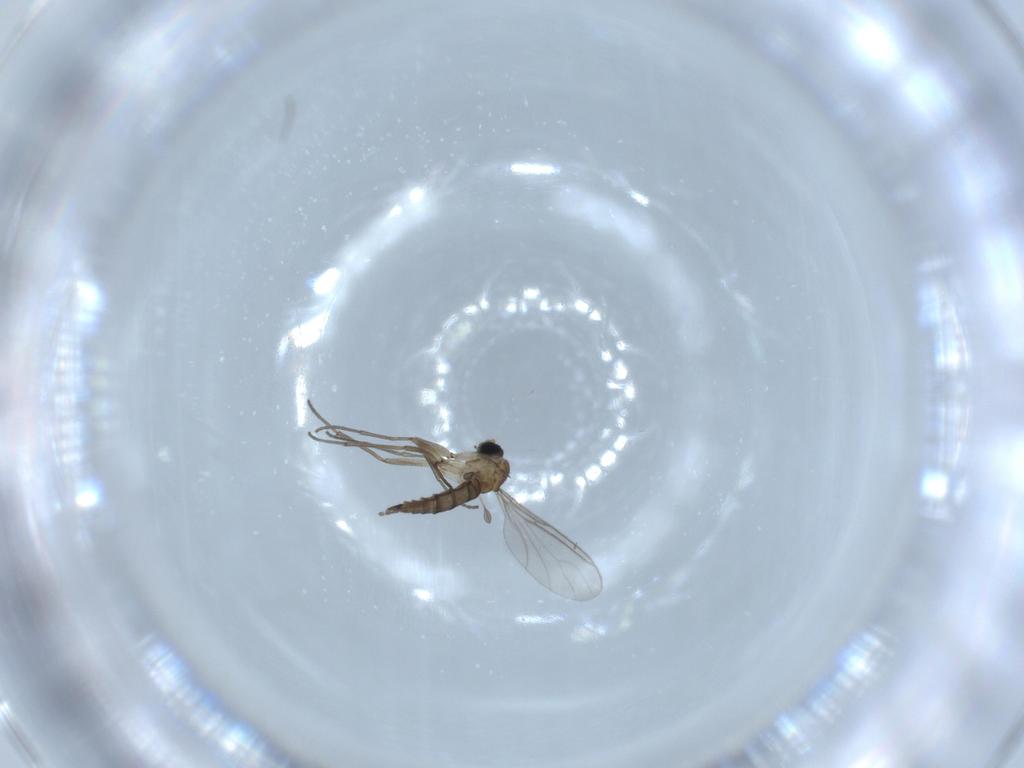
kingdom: Animalia
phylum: Arthropoda
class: Insecta
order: Diptera
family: Sciaridae
